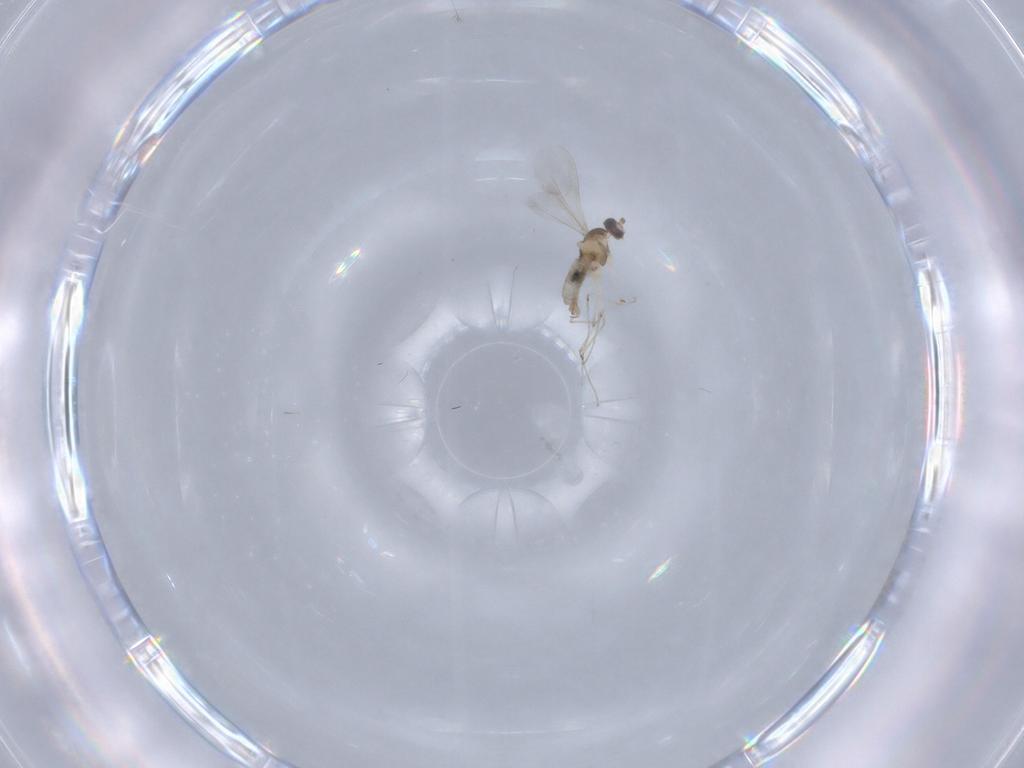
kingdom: Animalia
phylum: Arthropoda
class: Insecta
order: Diptera
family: Cecidomyiidae
